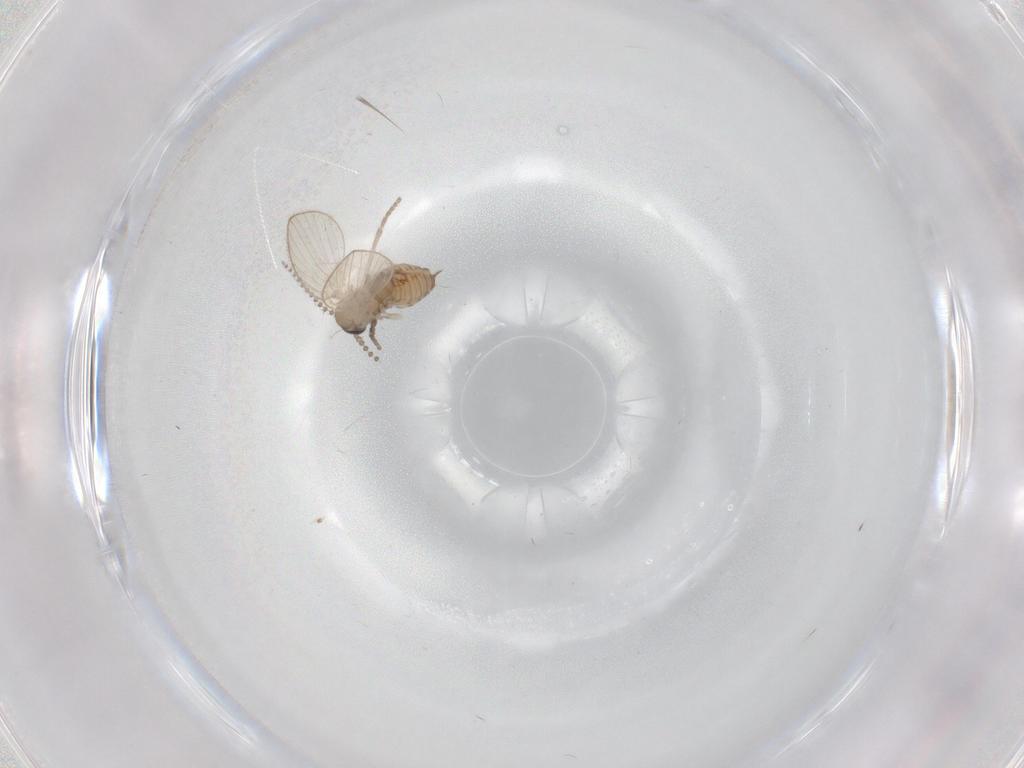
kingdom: Animalia
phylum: Arthropoda
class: Insecta
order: Diptera
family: Psychodidae
